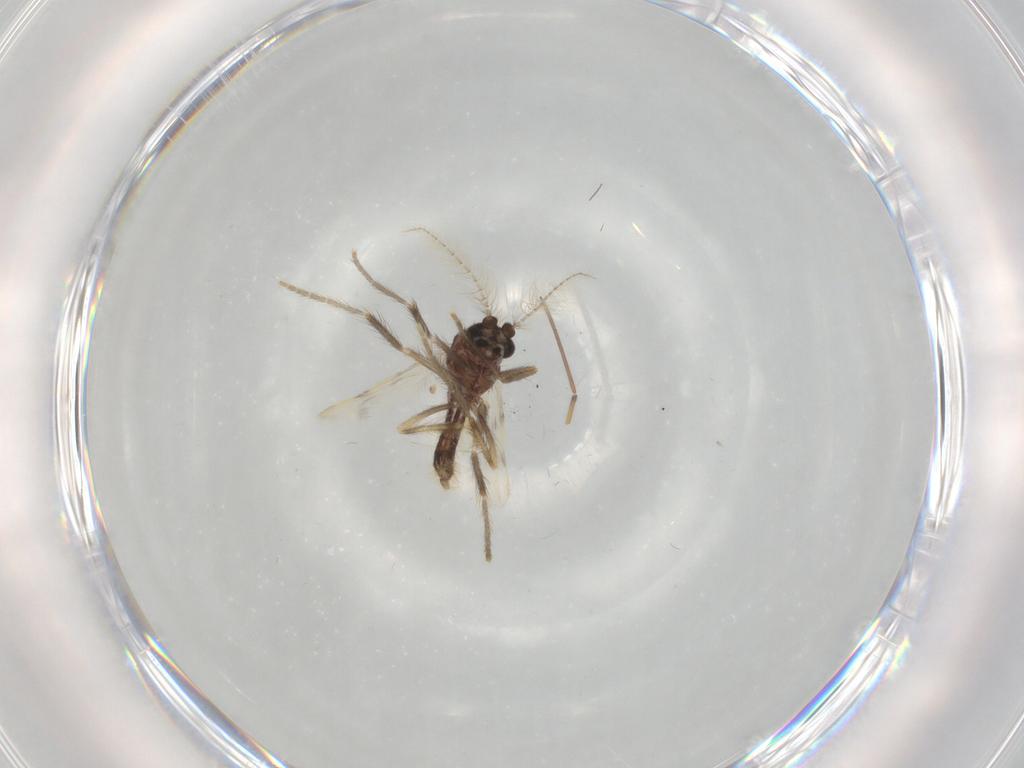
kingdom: Animalia
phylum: Arthropoda
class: Insecta
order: Diptera
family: Corethrellidae
